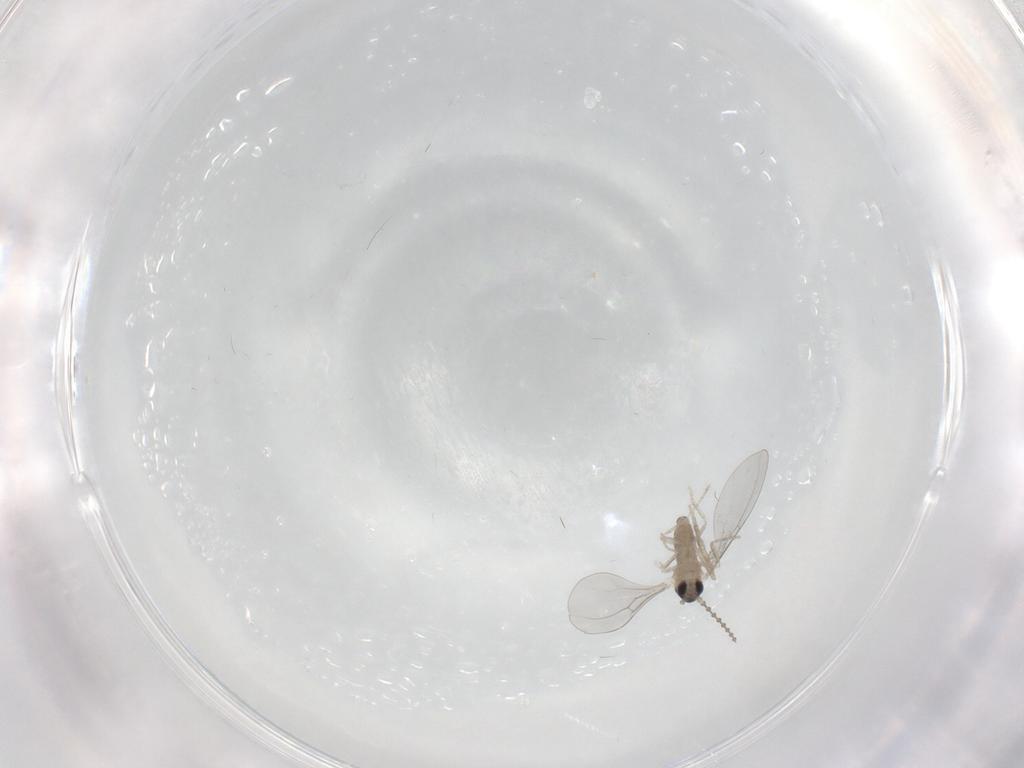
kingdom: Animalia
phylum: Arthropoda
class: Insecta
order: Diptera
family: Cecidomyiidae
